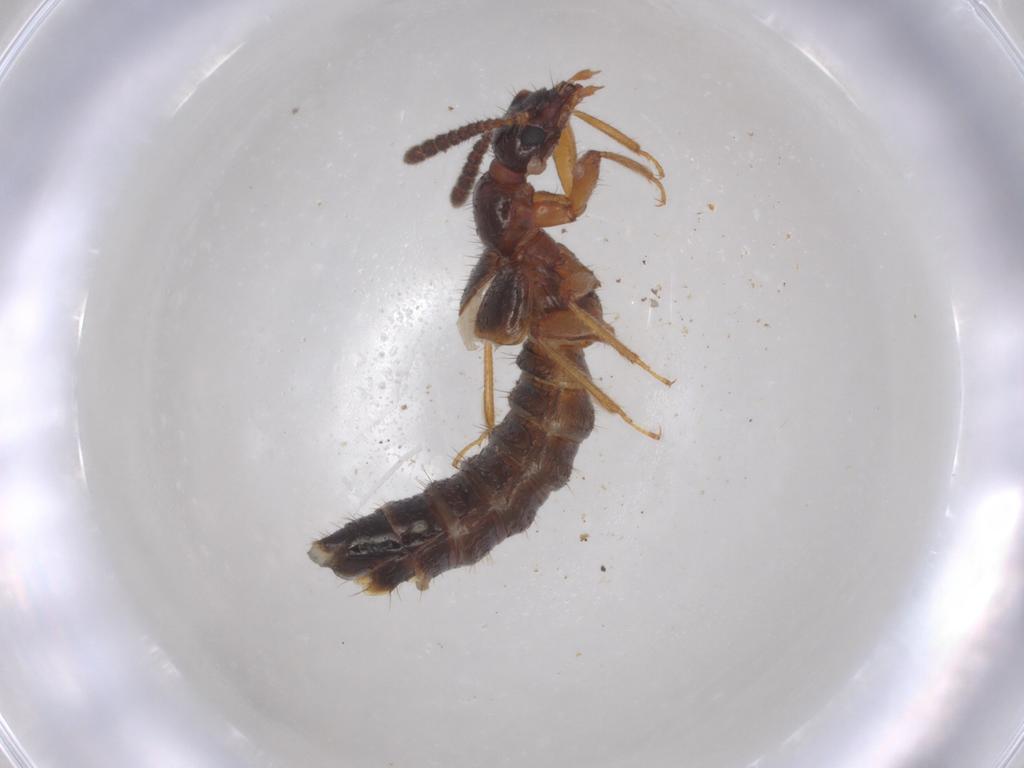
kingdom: Animalia
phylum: Arthropoda
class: Insecta
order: Coleoptera
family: Staphylinidae
